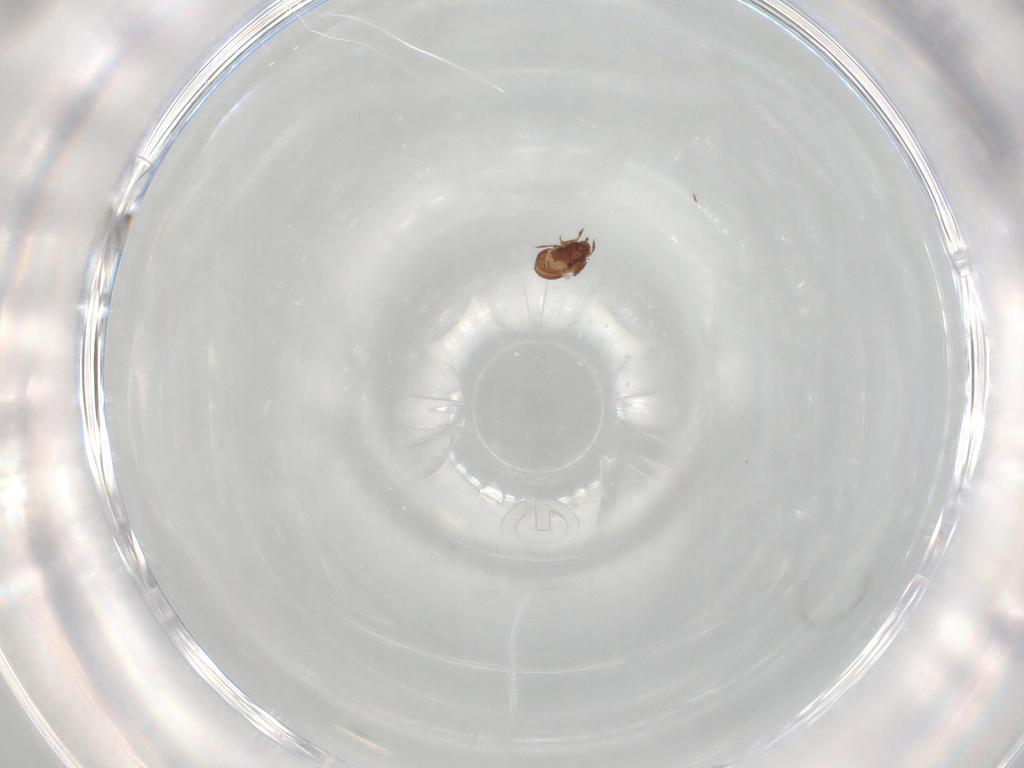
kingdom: Animalia
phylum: Arthropoda
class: Arachnida
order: Sarcoptiformes
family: Phenopelopidae
